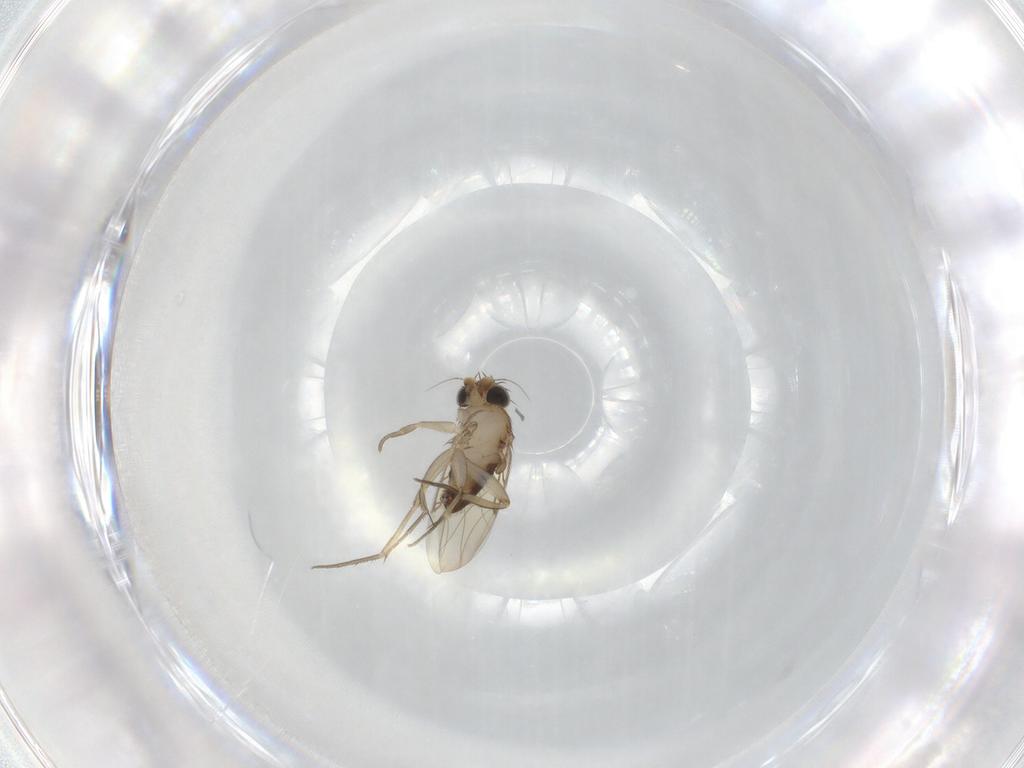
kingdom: Animalia
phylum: Arthropoda
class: Insecta
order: Diptera
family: Phoridae
